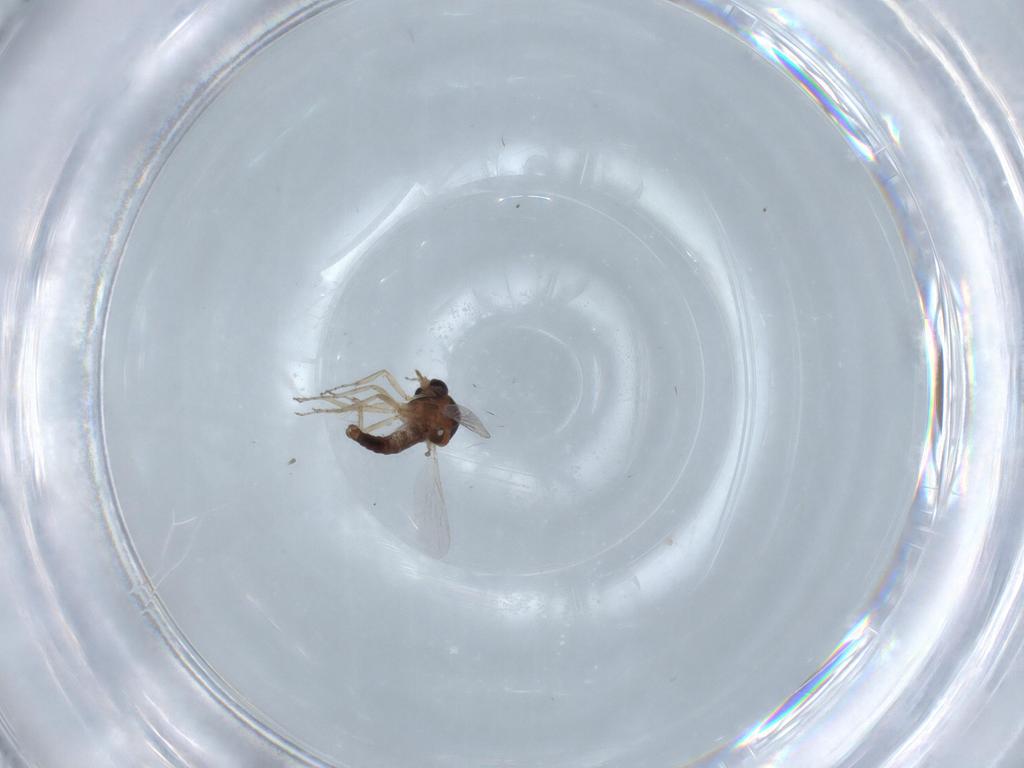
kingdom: Animalia
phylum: Arthropoda
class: Insecta
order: Diptera
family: Ceratopogonidae
